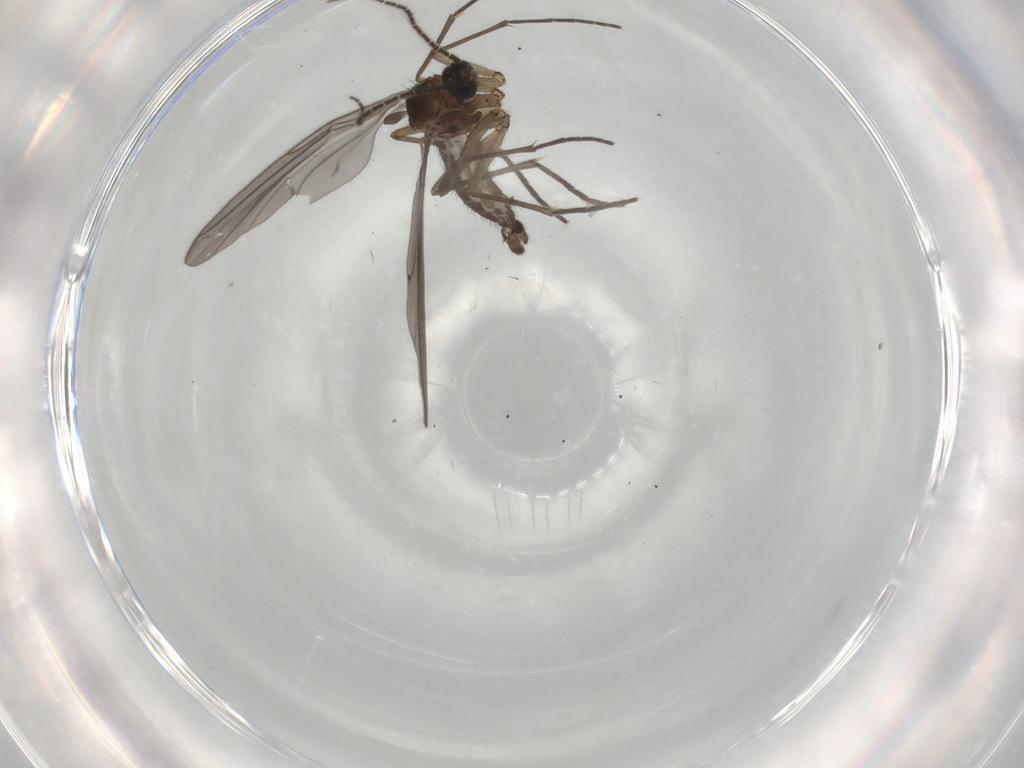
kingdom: Animalia
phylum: Arthropoda
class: Insecta
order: Diptera
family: Sciaridae
